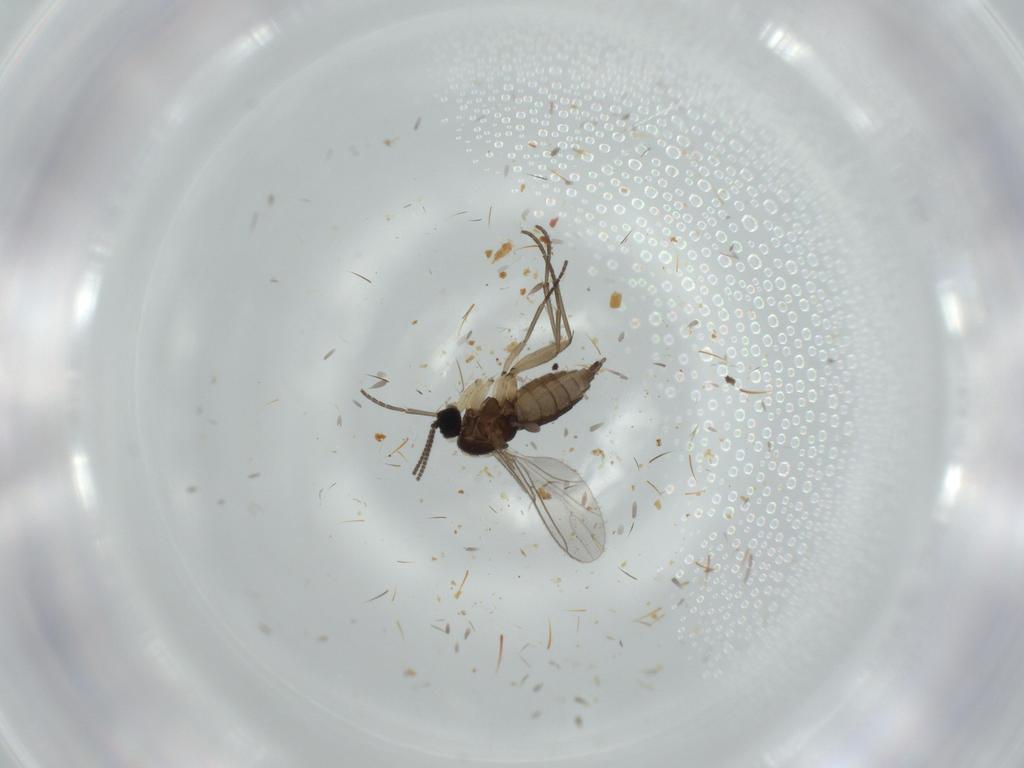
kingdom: Animalia
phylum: Arthropoda
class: Insecta
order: Diptera
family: Sciaridae
